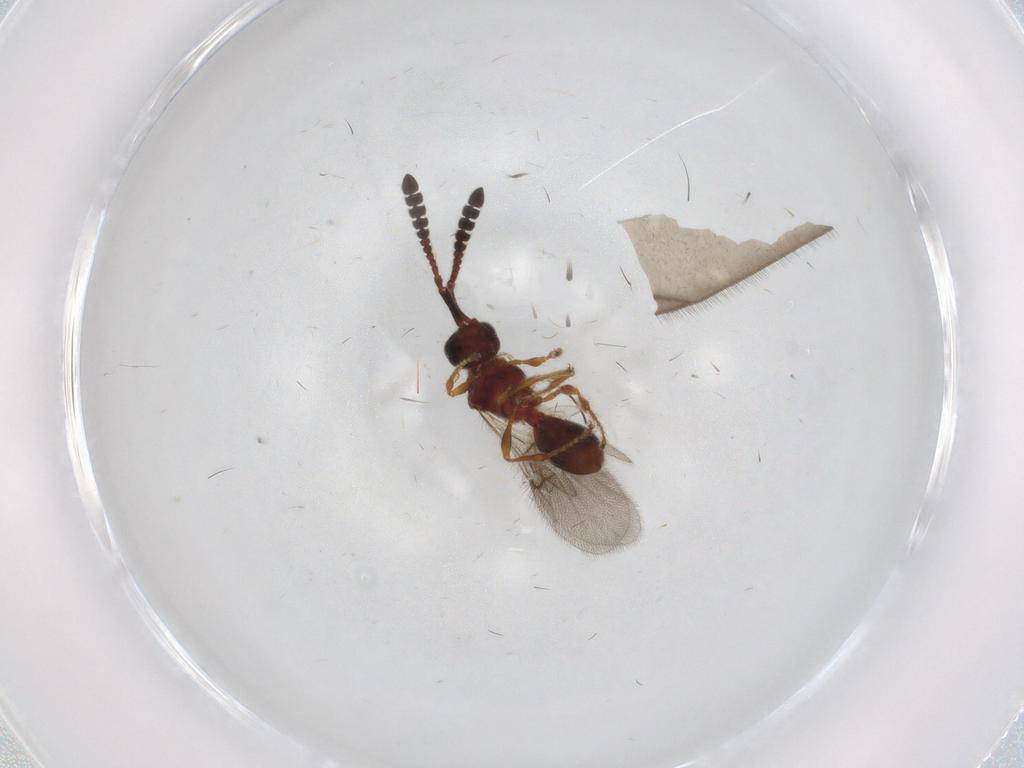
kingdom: Animalia
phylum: Arthropoda
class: Insecta
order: Hymenoptera
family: Diapriidae
